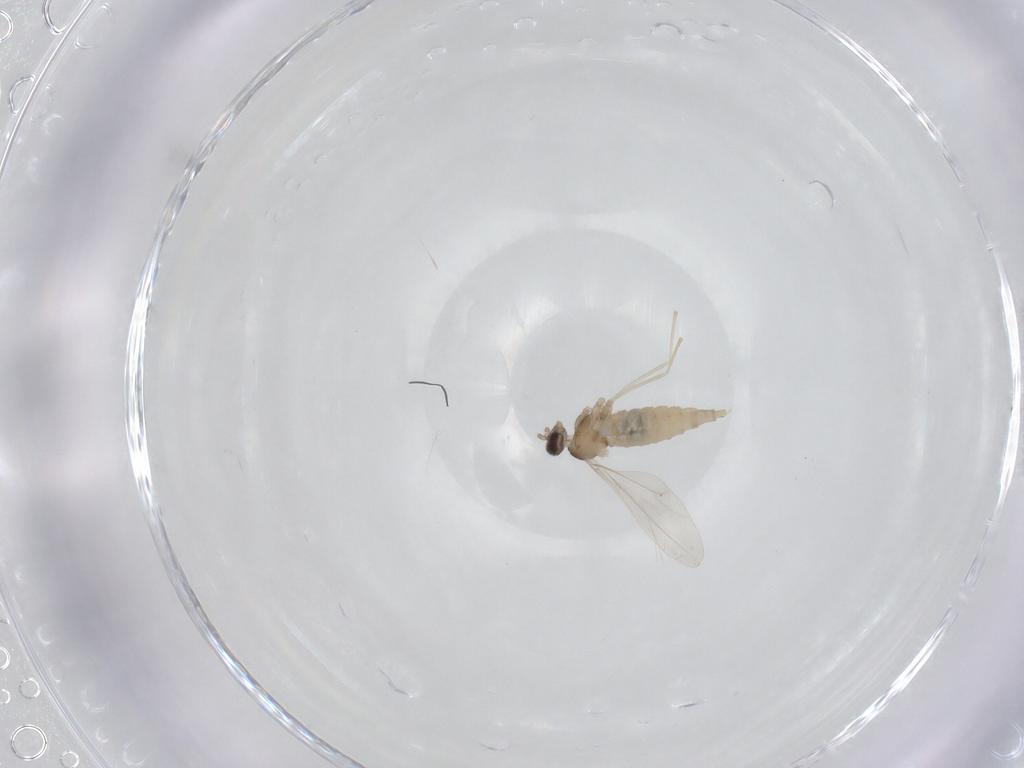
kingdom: Animalia
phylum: Arthropoda
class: Insecta
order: Diptera
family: Cecidomyiidae
